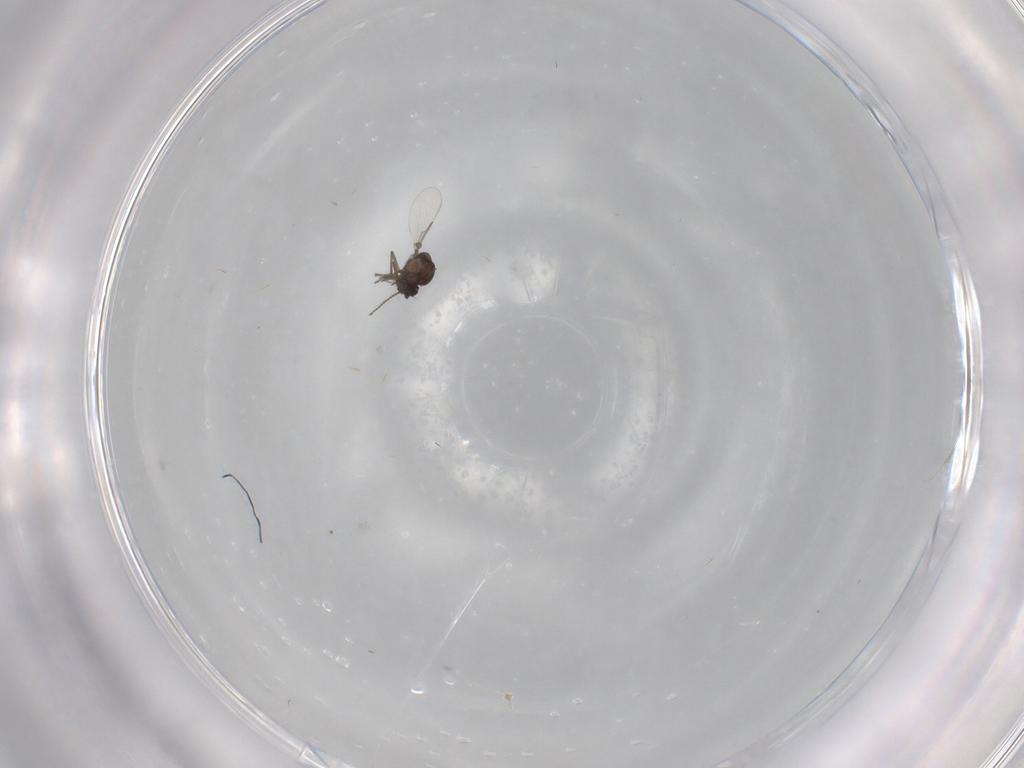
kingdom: Animalia
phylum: Arthropoda
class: Insecta
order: Diptera
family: Ceratopogonidae
